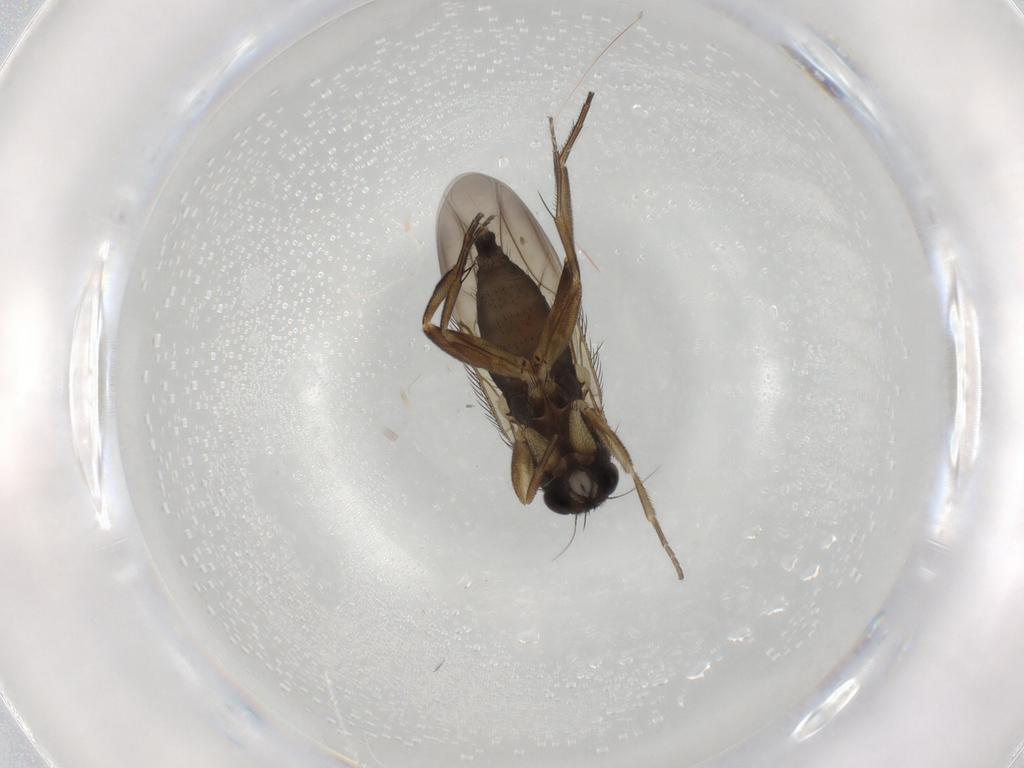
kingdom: Animalia
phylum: Arthropoda
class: Insecta
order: Diptera
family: Phoridae
